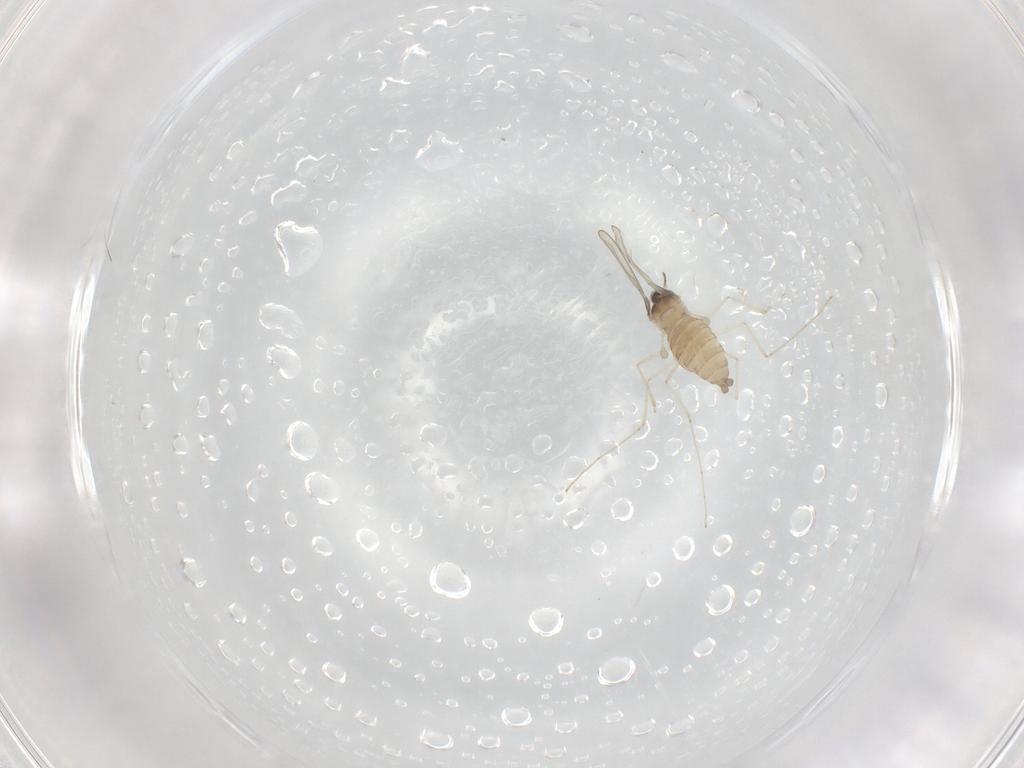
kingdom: Animalia
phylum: Arthropoda
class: Insecta
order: Diptera
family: Cecidomyiidae
